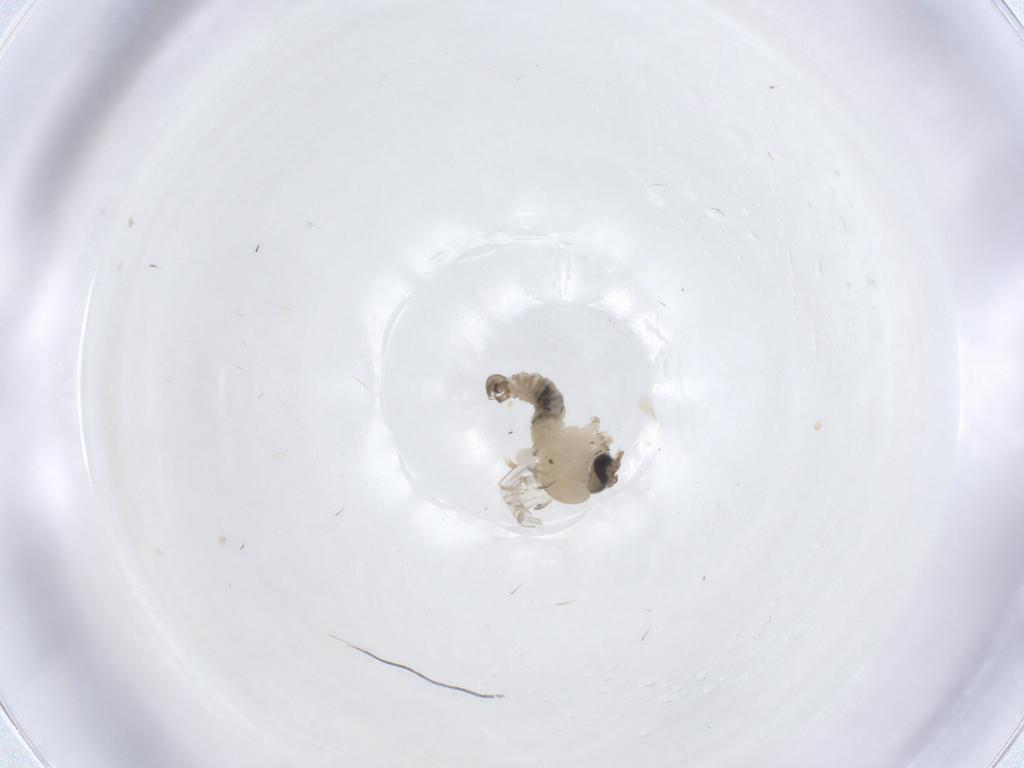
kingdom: Animalia
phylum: Arthropoda
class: Insecta
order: Diptera
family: Psychodidae
